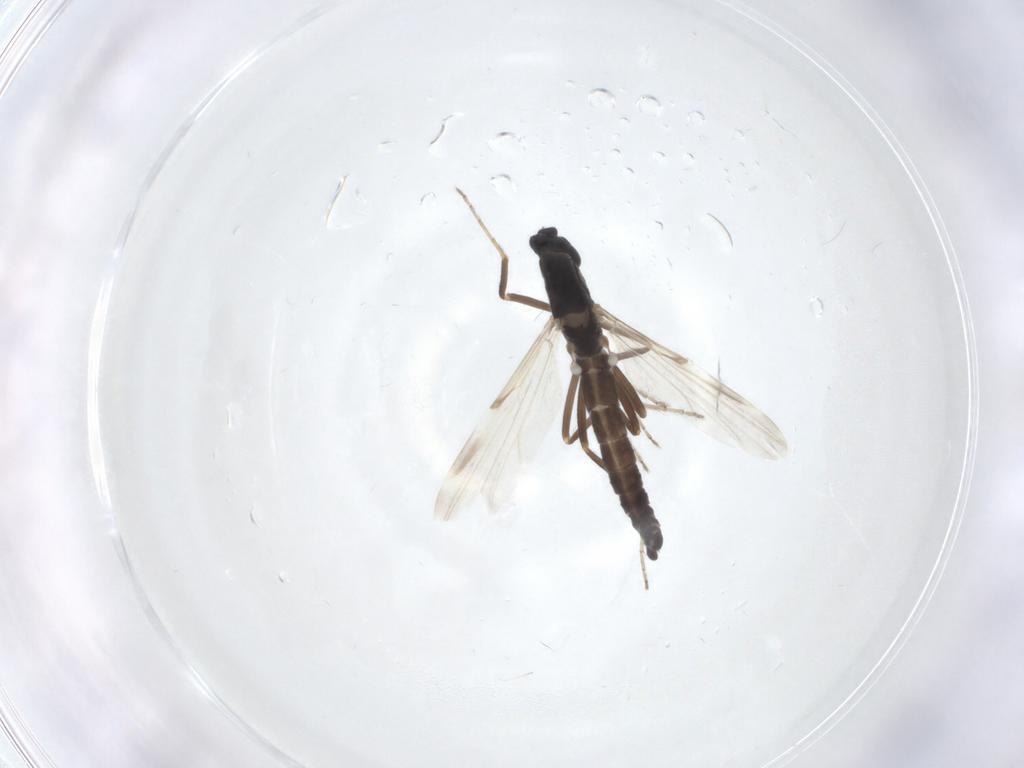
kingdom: Animalia
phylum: Arthropoda
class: Insecta
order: Diptera
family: Ceratopogonidae
